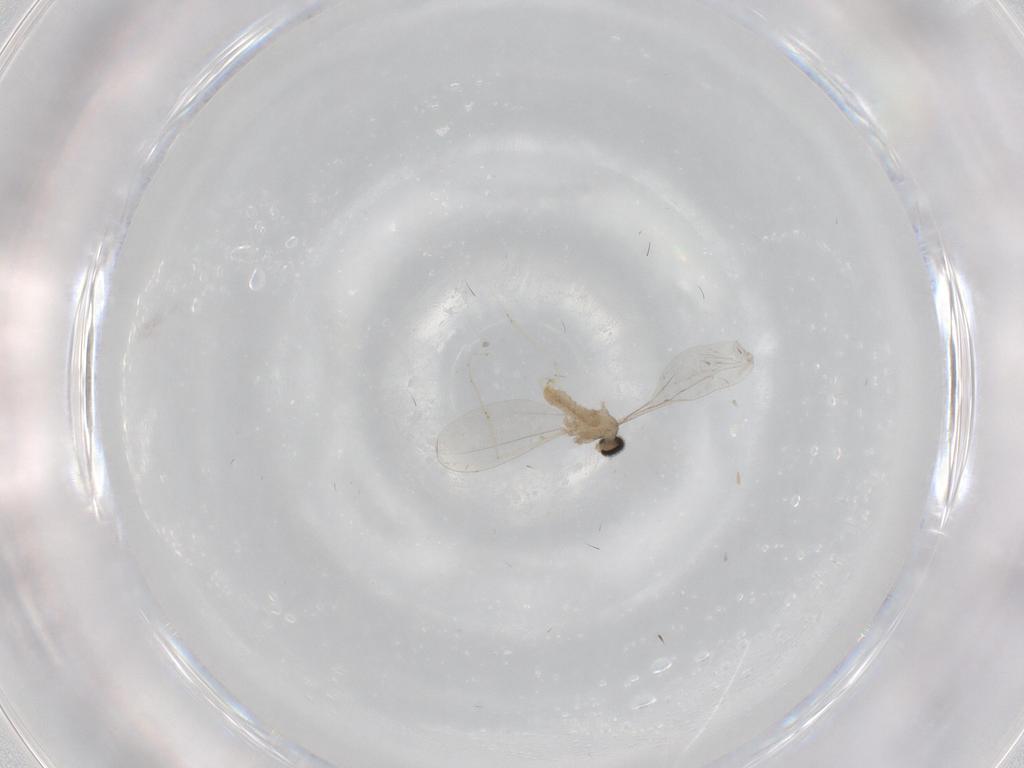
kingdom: Animalia
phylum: Arthropoda
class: Insecta
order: Diptera
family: Cecidomyiidae
